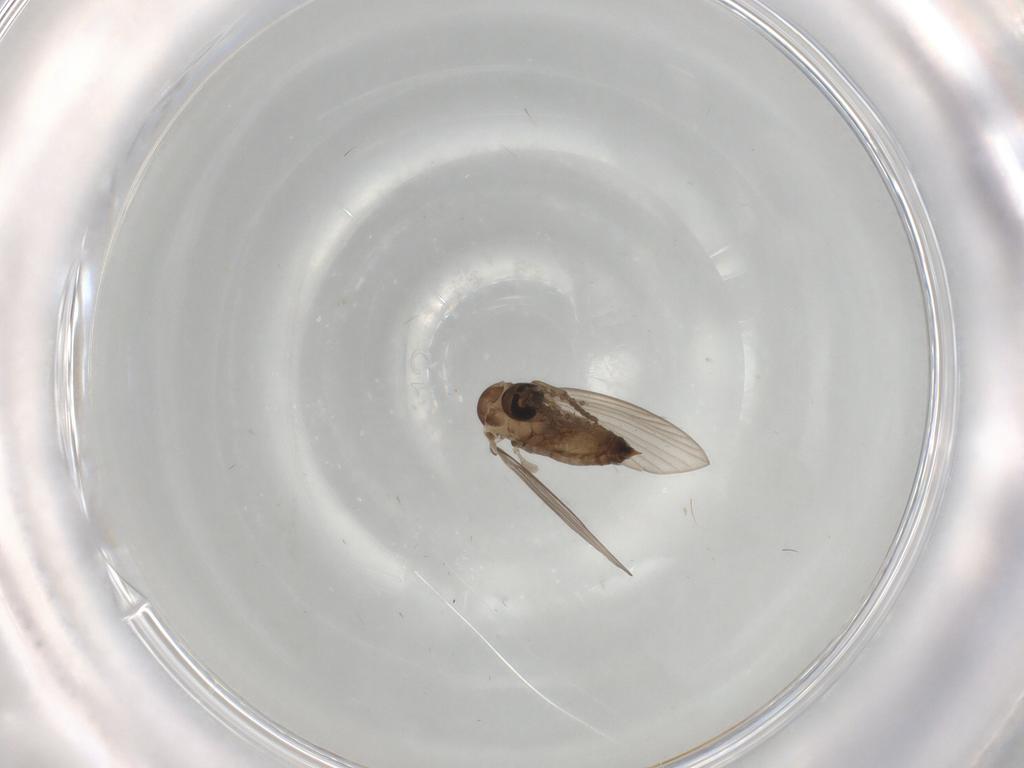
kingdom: Animalia
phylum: Arthropoda
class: Insecta
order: Diptera
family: Psychodidae
